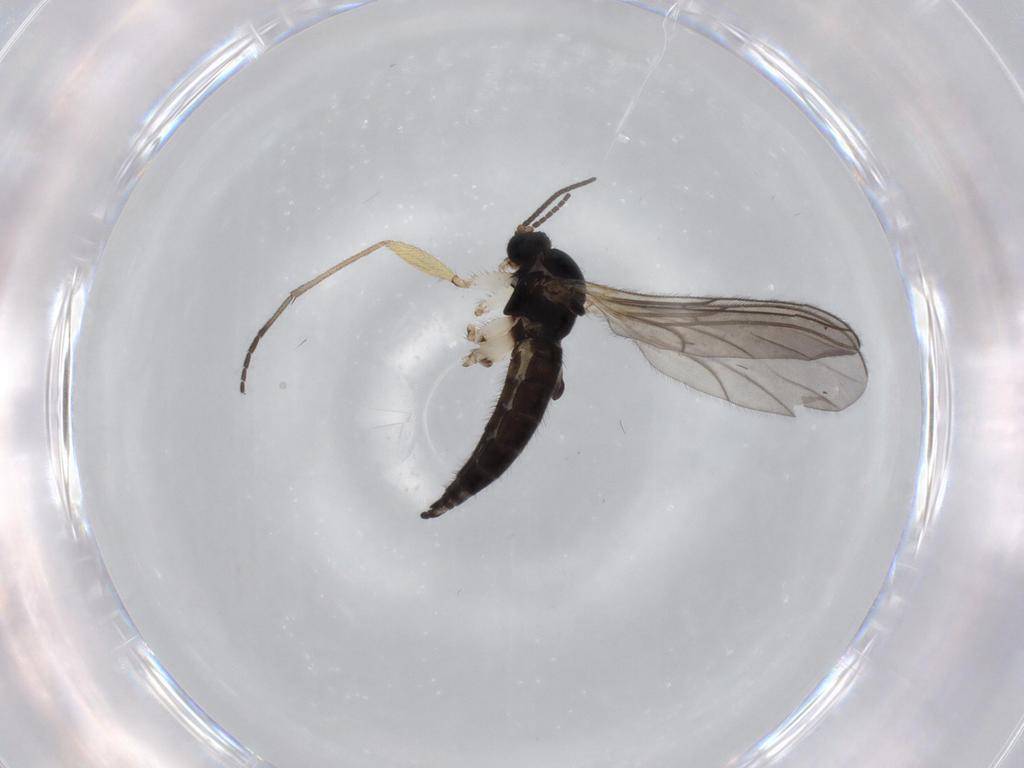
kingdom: Animalia
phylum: Arthropoda
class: Insecta
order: Diptera
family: Sciaridae
